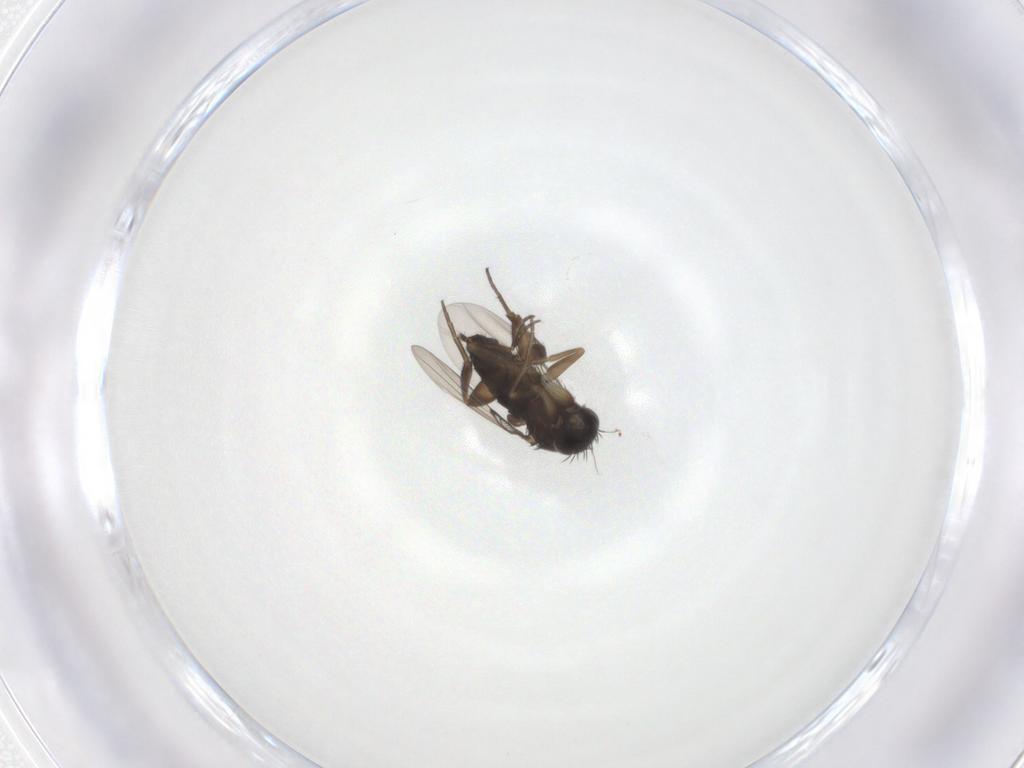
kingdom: Animalia
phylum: Arthropoda
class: Insecta
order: Diptera
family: Phoridae
